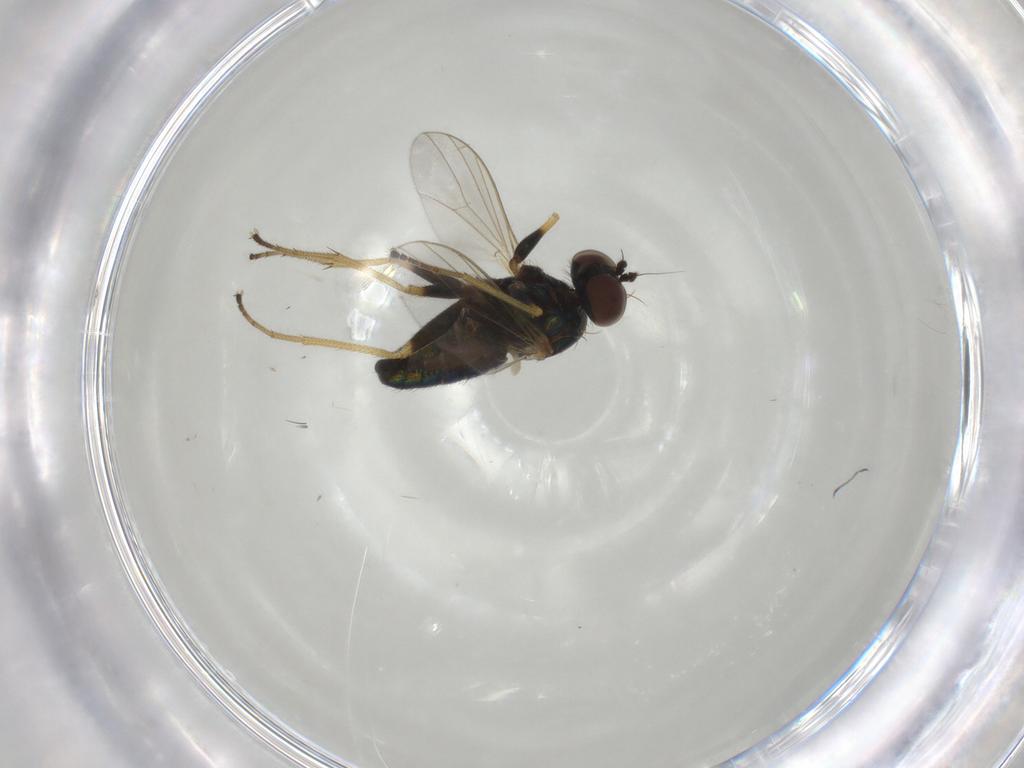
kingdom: Animalia
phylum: Arthropoda
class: Insecta
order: Diptera
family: Dolichopodidae
